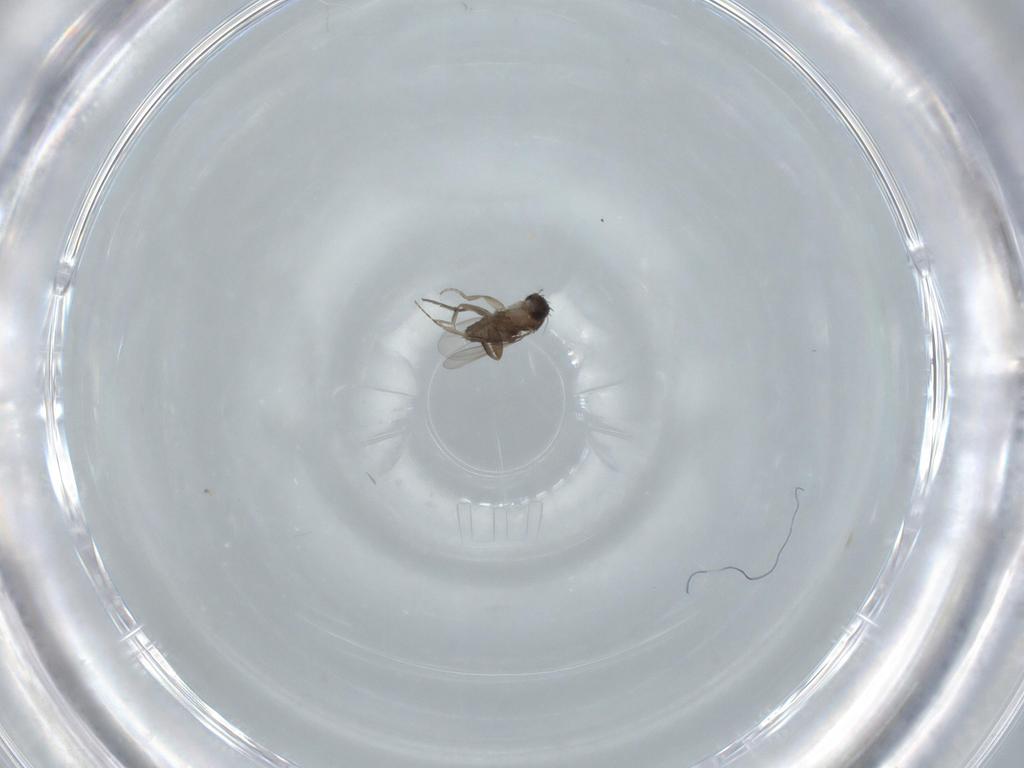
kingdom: Animalia
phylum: Arthropoda
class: Insecta
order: Diptera
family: Phoridae
